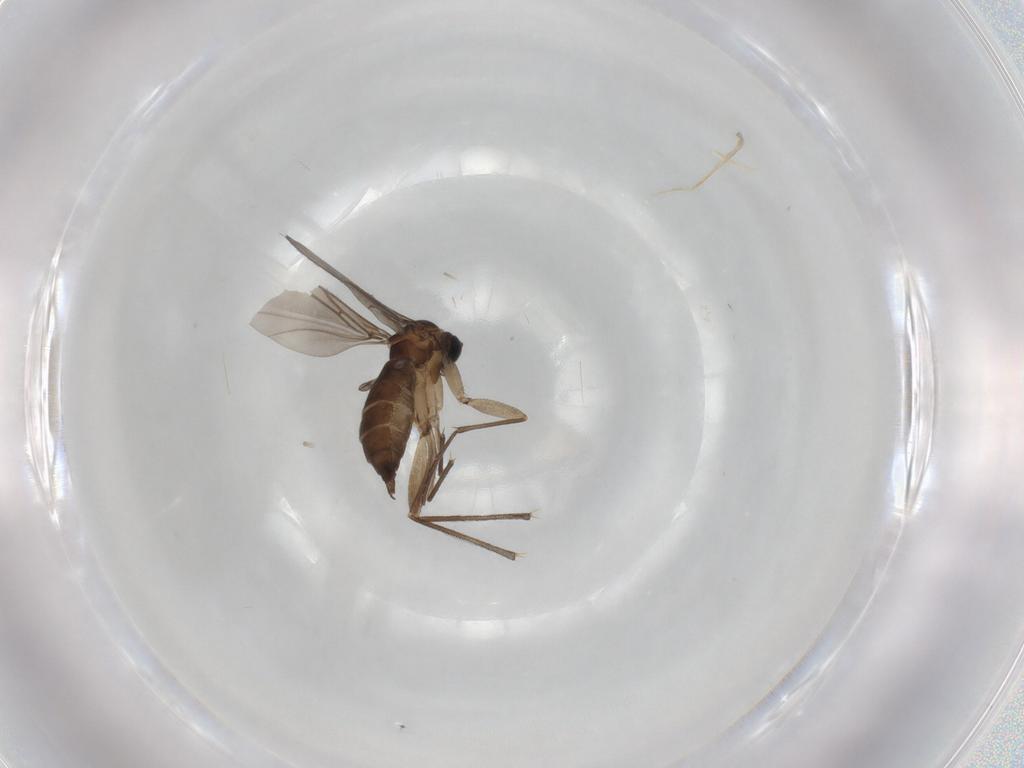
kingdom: Animalia
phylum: Arthropoda
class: Insecta
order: Diptera
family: Sciaridae
